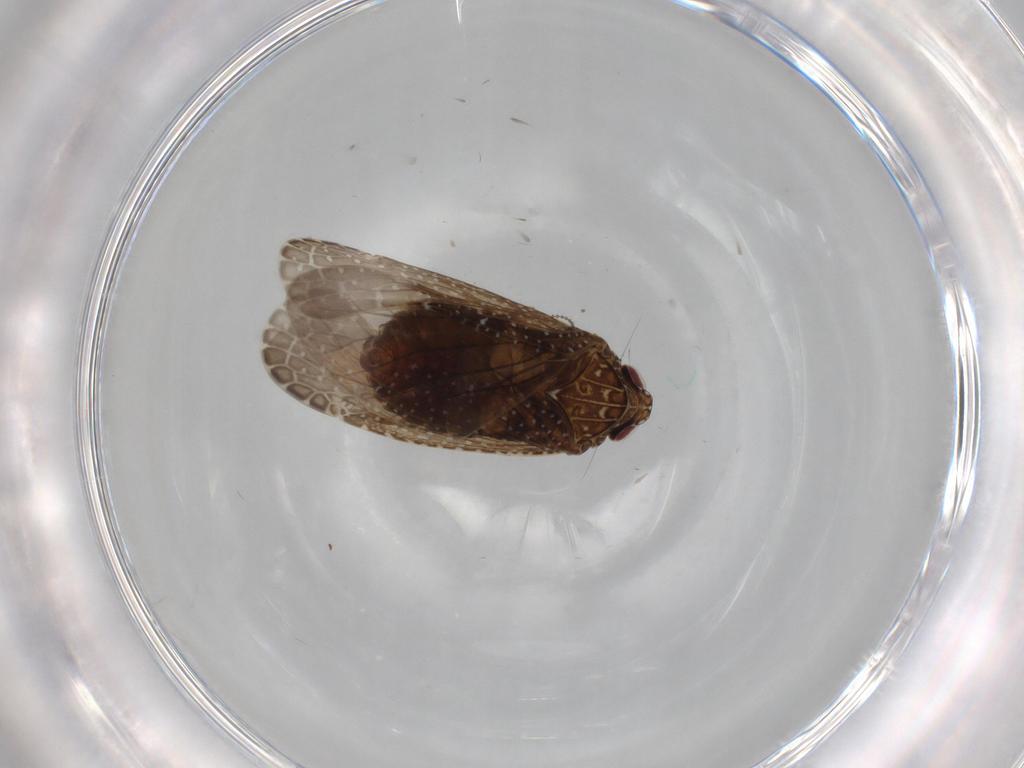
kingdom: Animalia
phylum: Arthropoda
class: Insecta
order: Hemiptera
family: Cicadellidae
